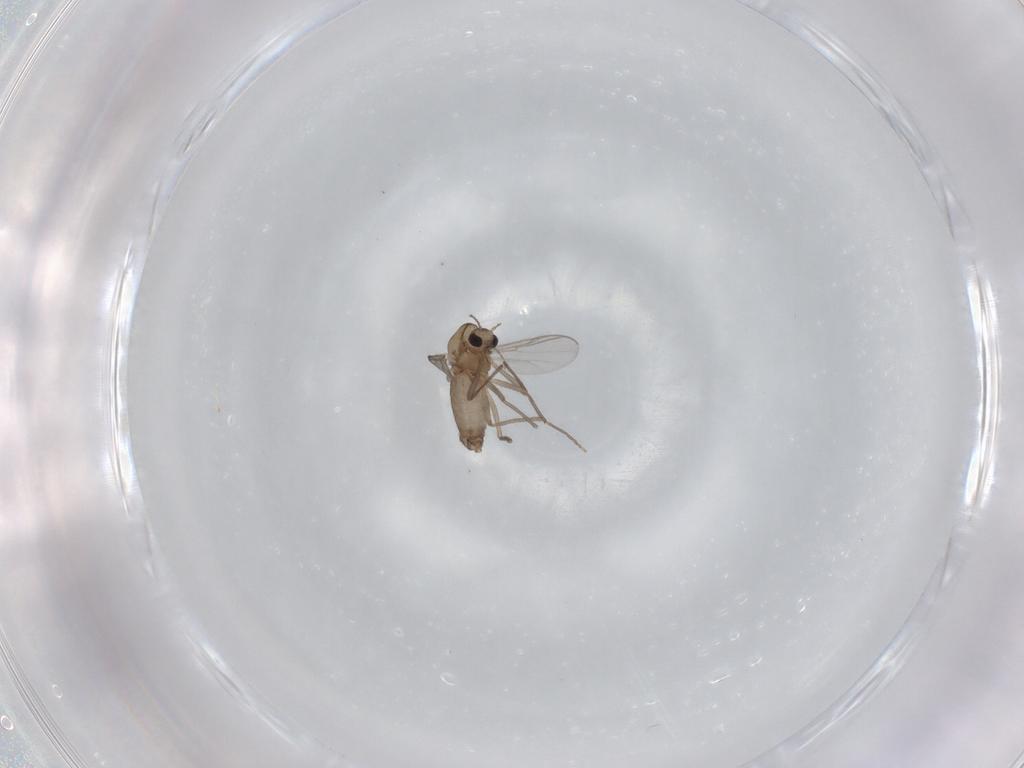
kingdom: Animalia
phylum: Arthropoda
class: Insecta
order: Diptera
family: Chironomidae
